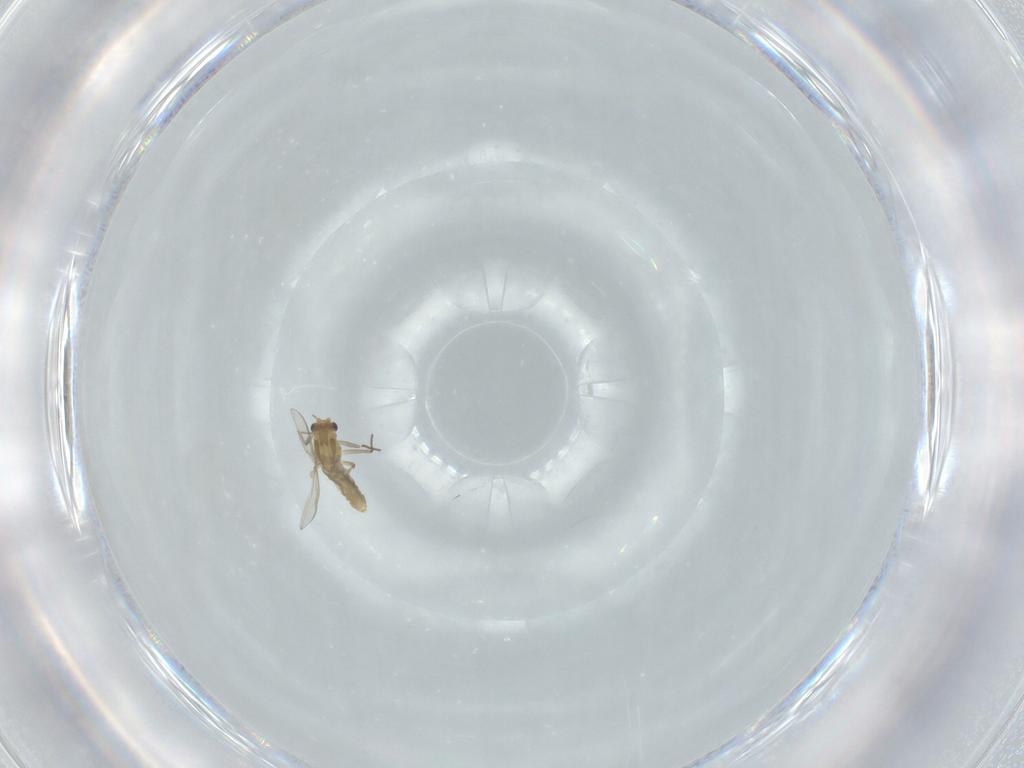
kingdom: Animalia
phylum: Arthropoda
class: Insecta
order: Diptera
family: Chironomidae
